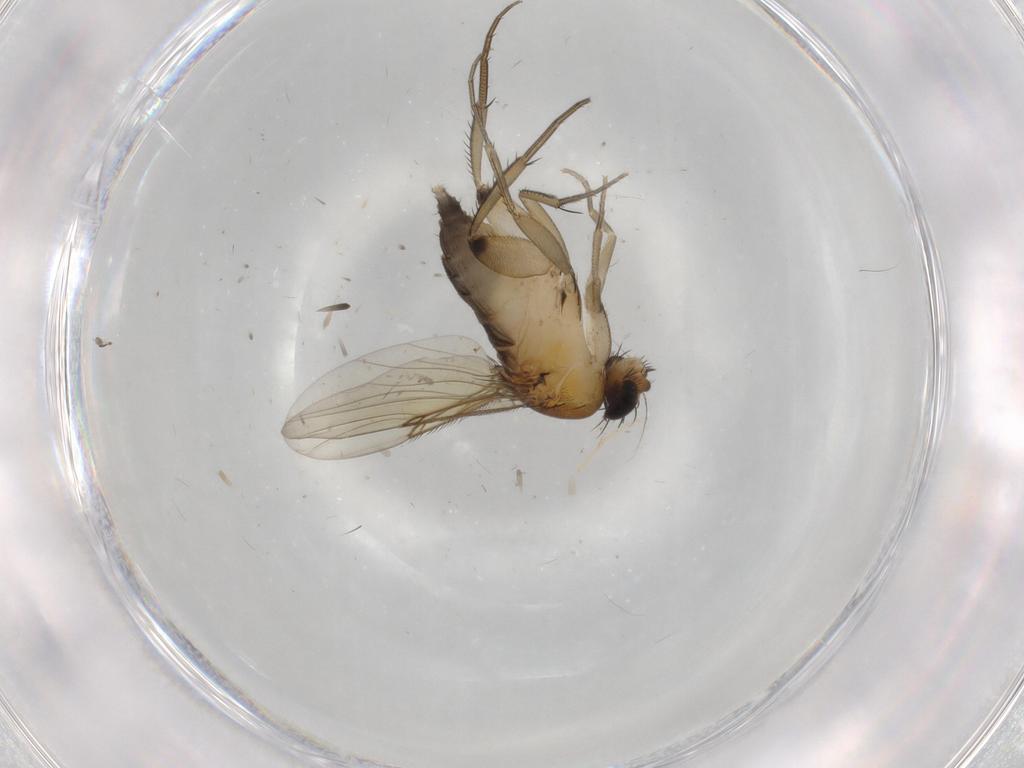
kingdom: Animalia
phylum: Arthropoda
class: Insecta
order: Diptera
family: Phoridae
